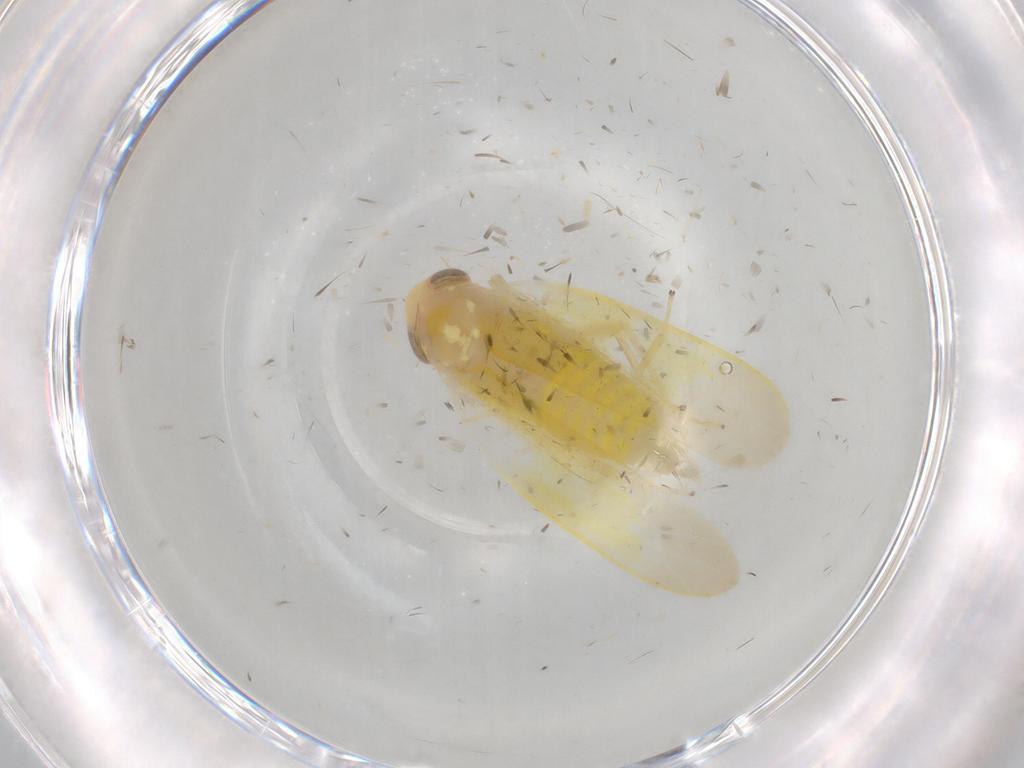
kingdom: Animalia
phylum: Arthropoda
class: Insecta
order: Hemiptera
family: Cicadellidae
